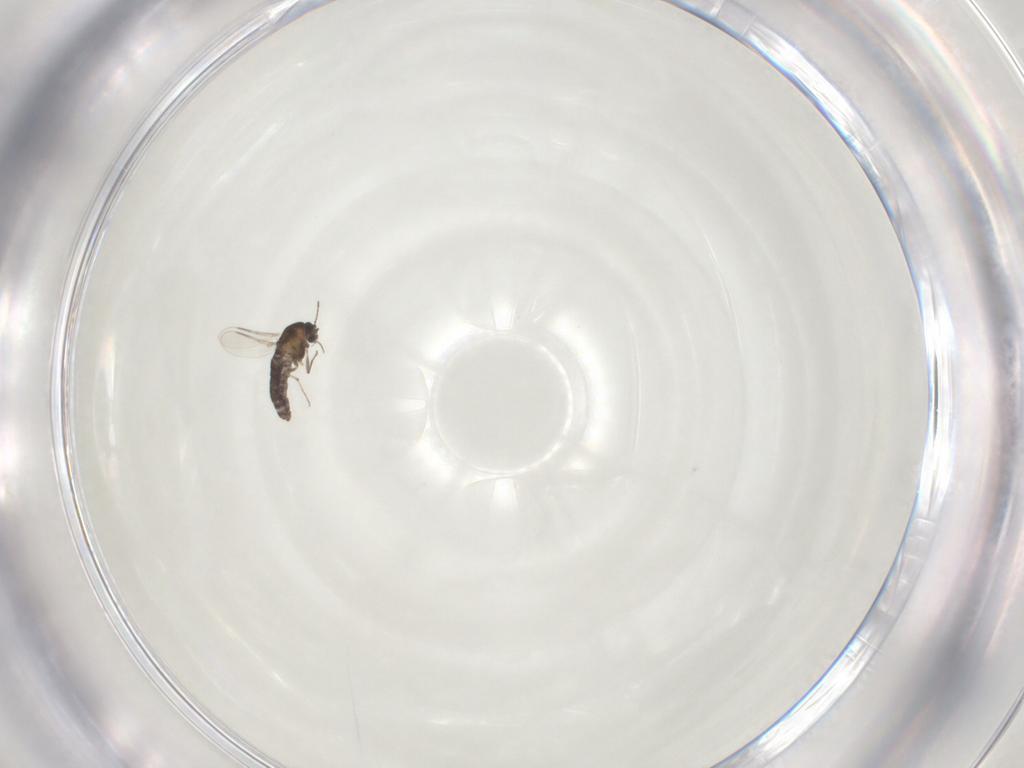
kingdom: Animalia
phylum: Arthropoda
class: Insecta
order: Diptera
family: Chironomidae
